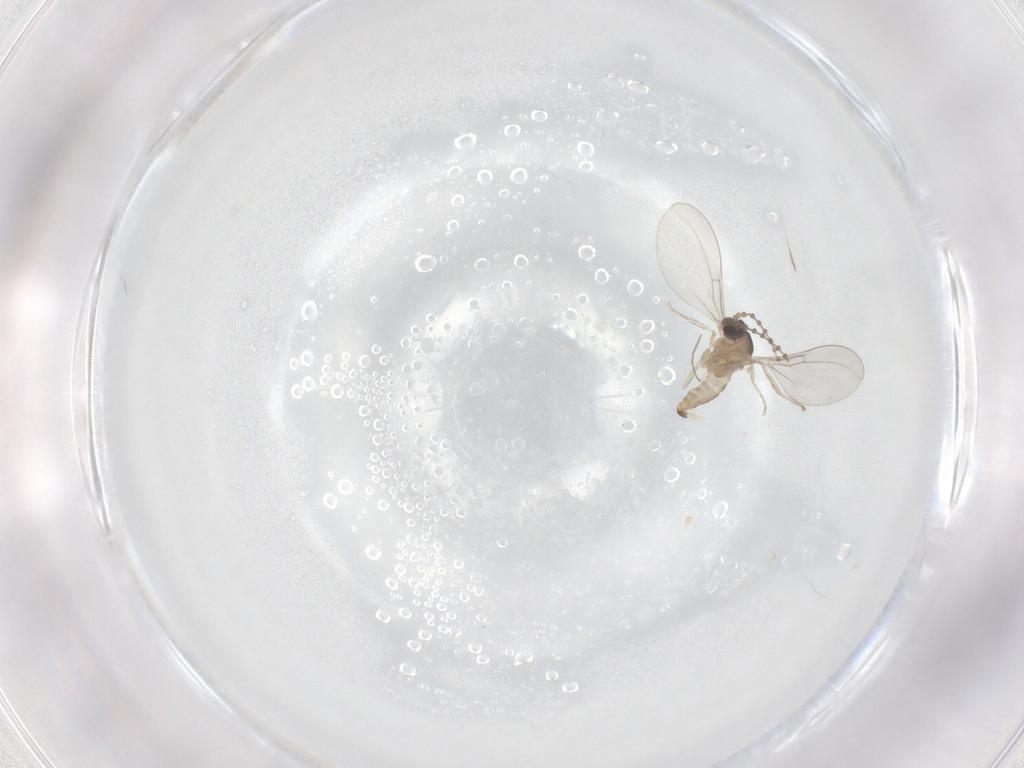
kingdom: Animalia
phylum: Arthropoda
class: Insecta
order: Diptera
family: Cecidomyiidae
